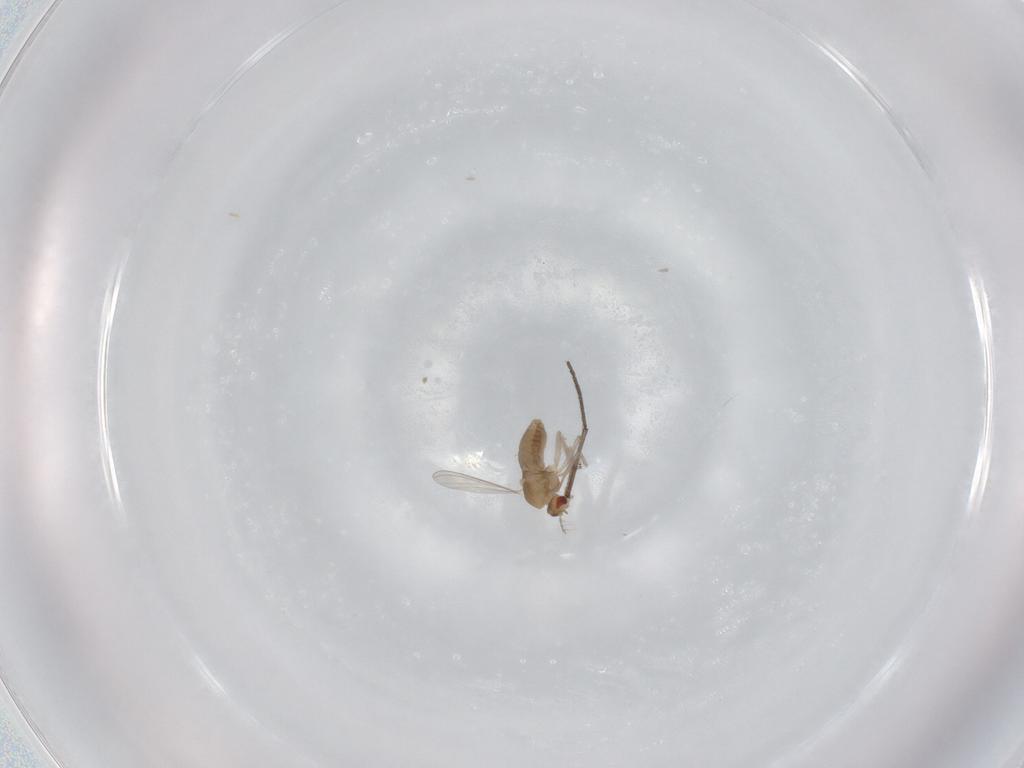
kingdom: Animalia
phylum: Arthropoda
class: Insecta
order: Diptera
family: Chironomidae
